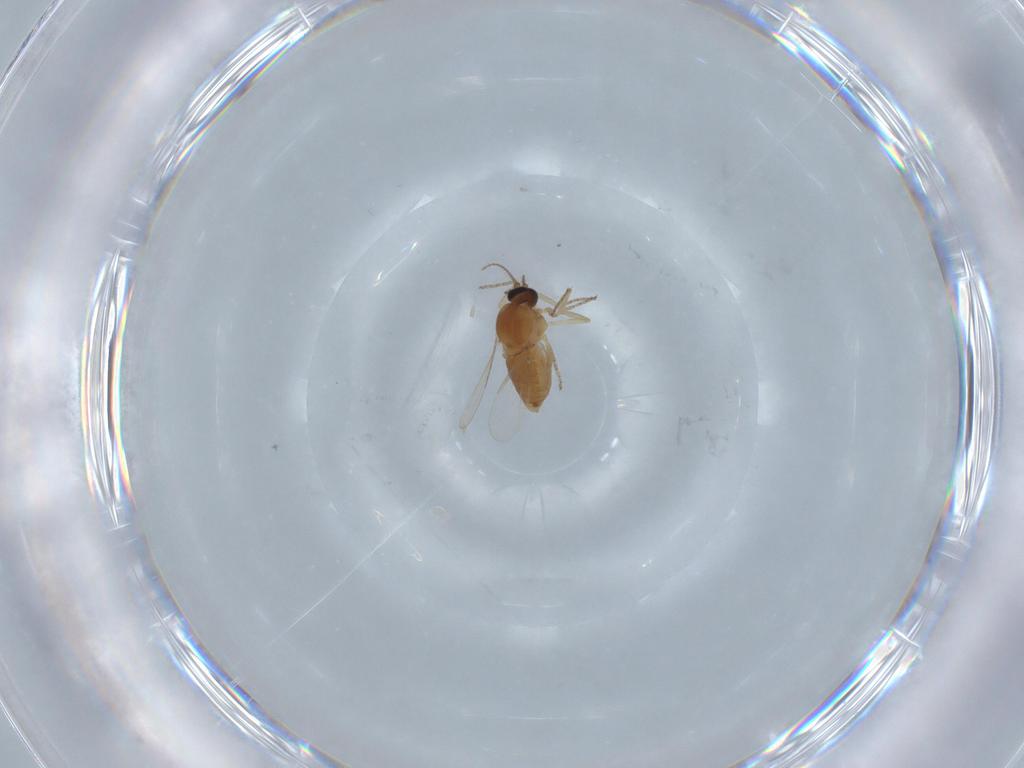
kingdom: Animalia
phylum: Arthropoda
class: Insecta
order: Diptera
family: Ceratopogonidae
